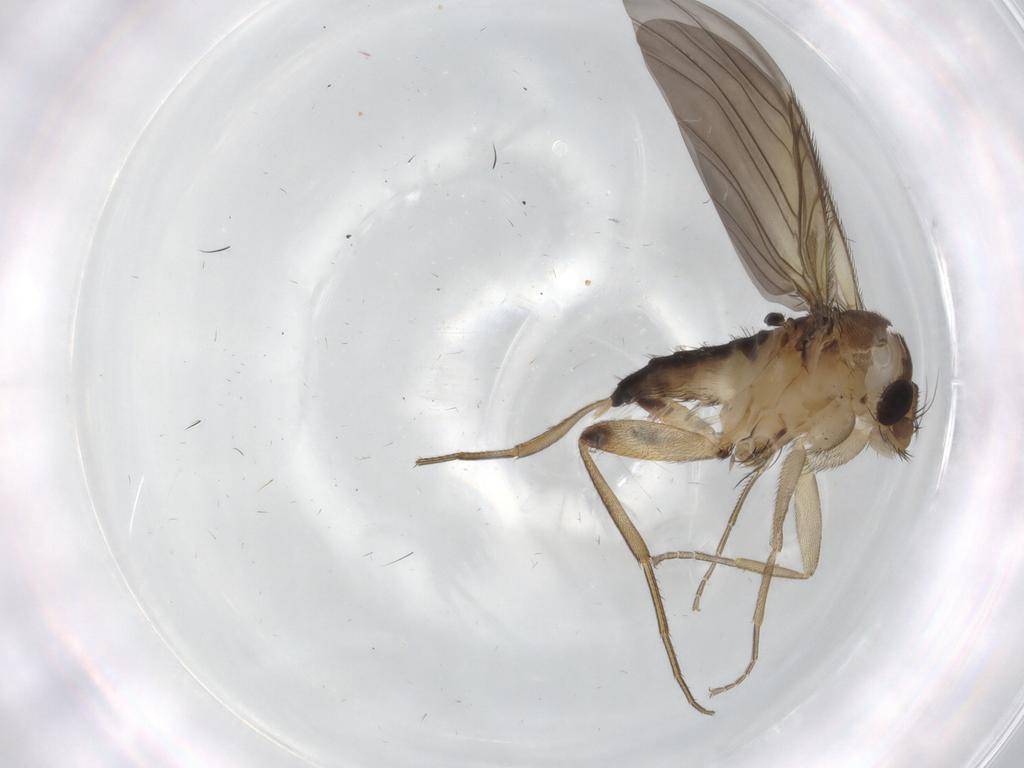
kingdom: Animalia
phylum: Arthropoda
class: Insecta
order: Diptera
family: Sciaridae
